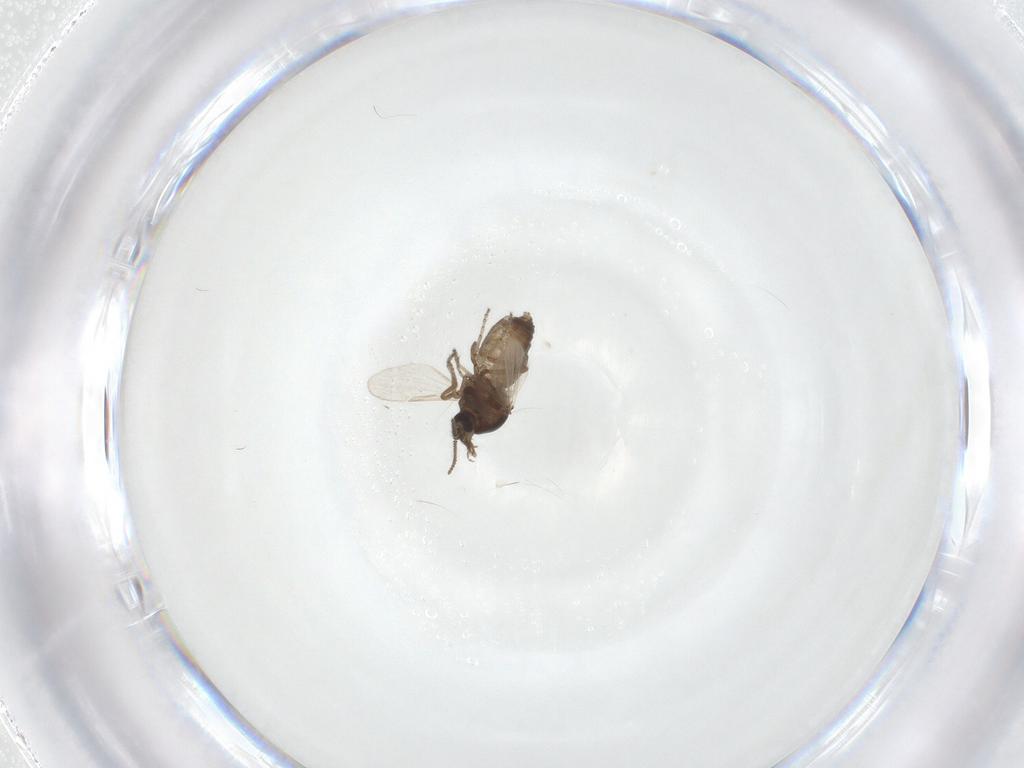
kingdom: Animalia
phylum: Arthropoda
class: Insecta
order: Diptera
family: Ceratopogonidae
